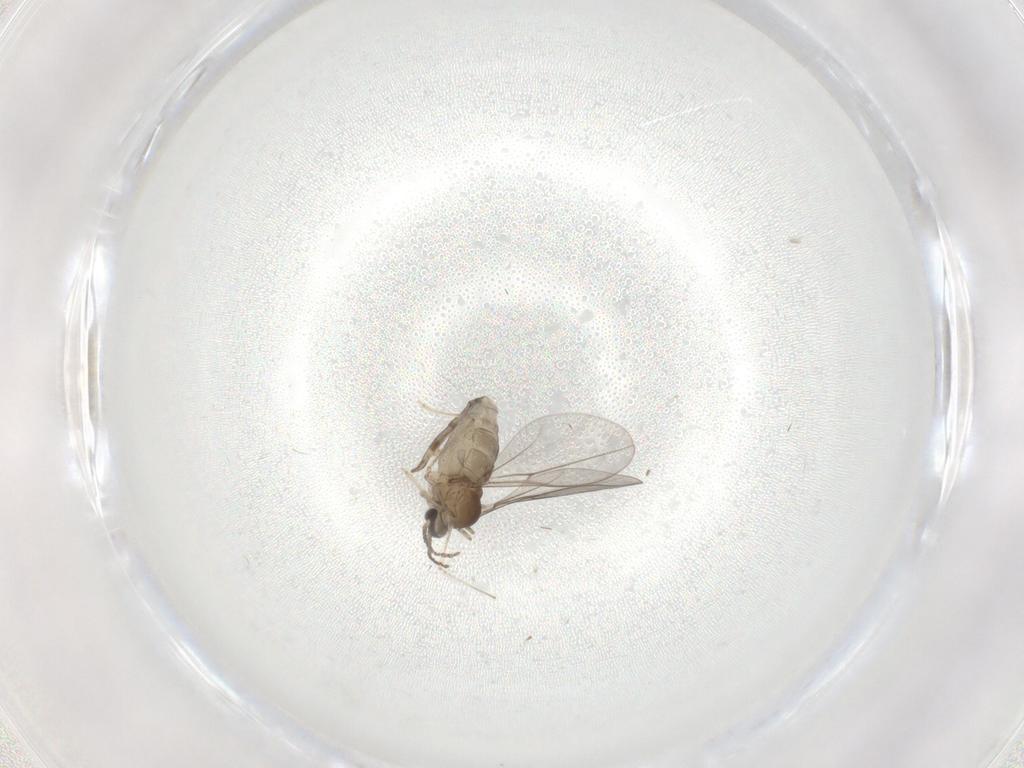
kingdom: Animalia
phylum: Arthropoda
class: Insecta
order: Diptera
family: Cecidomyiidae
